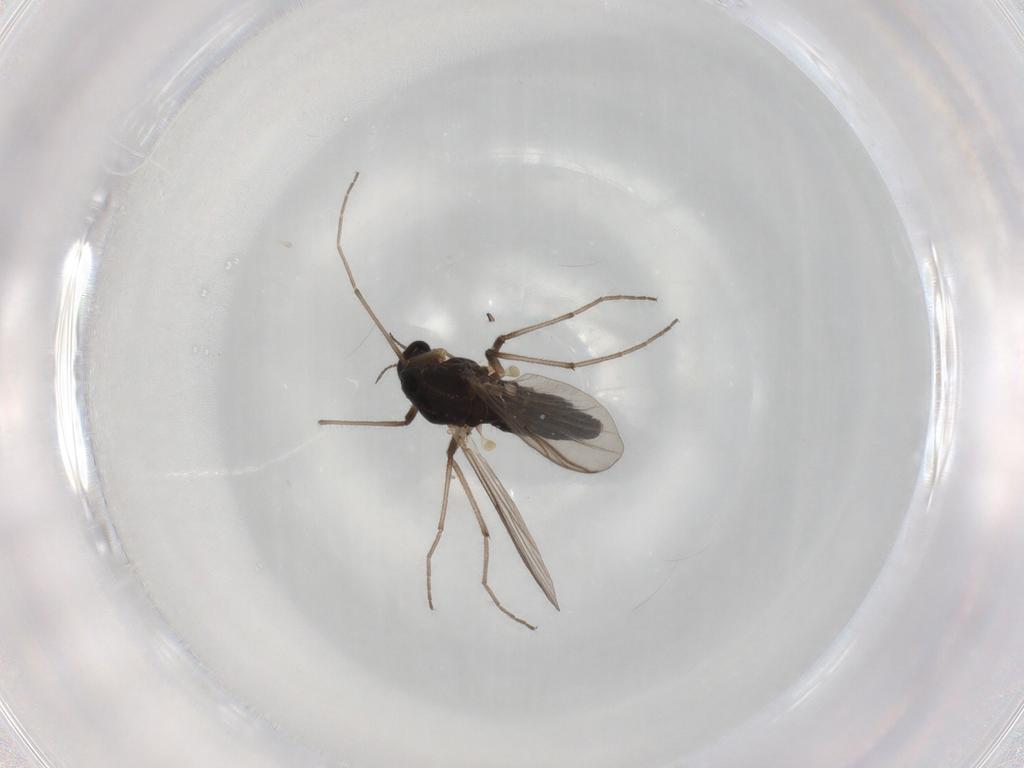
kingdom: Animalia
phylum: Arthropoda
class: Insecta
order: Diptera
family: Chironomidae
